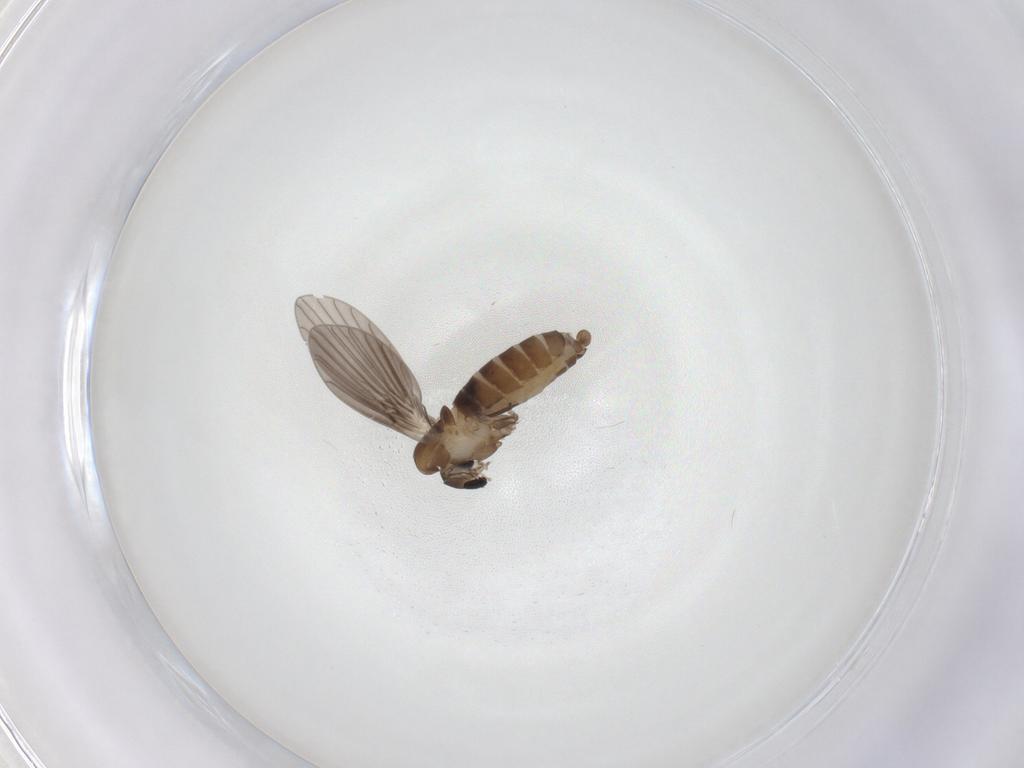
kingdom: Animalia
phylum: Arthropoda
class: Insecta
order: Diptera
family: Psychodidae
